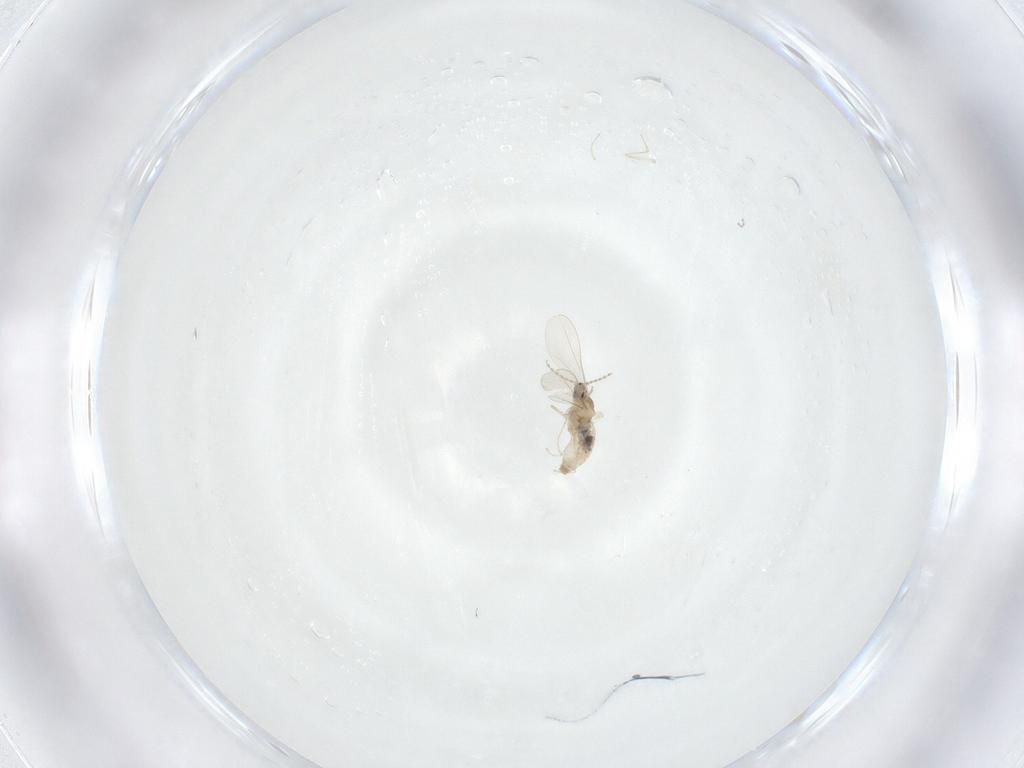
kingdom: Animalia
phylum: Arthropoda
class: Insecta
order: Diptera
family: Cecidomyiidae
